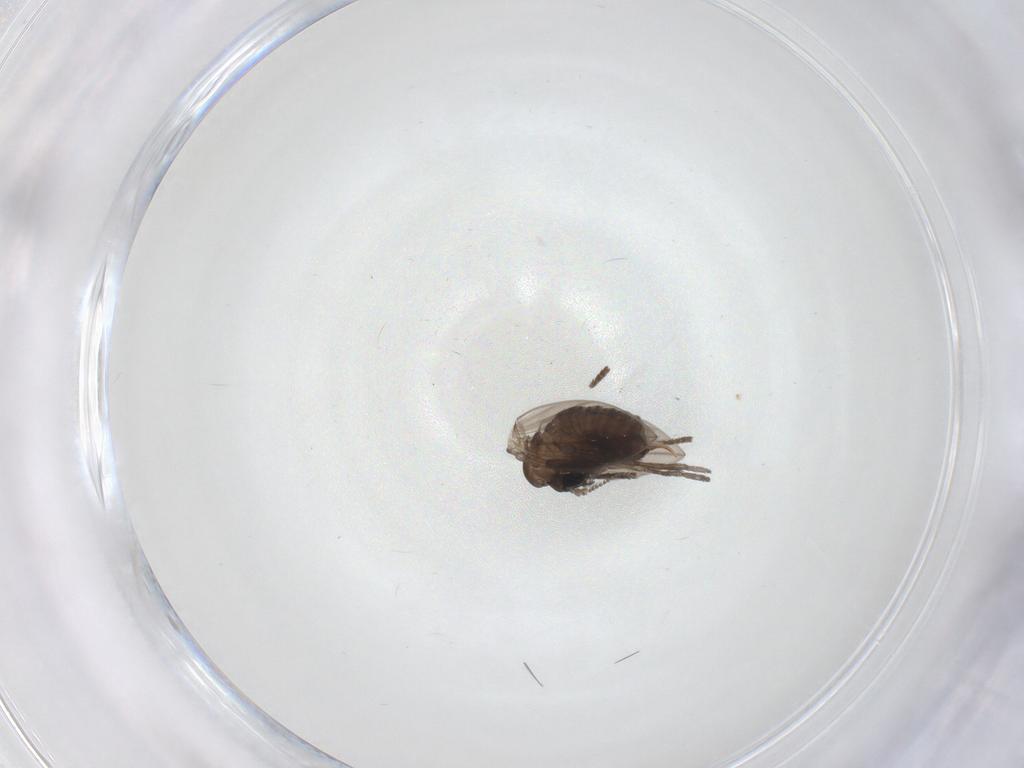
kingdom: Animalia
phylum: Arthropoda
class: Insecta
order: Diptera
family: Psychodidae
